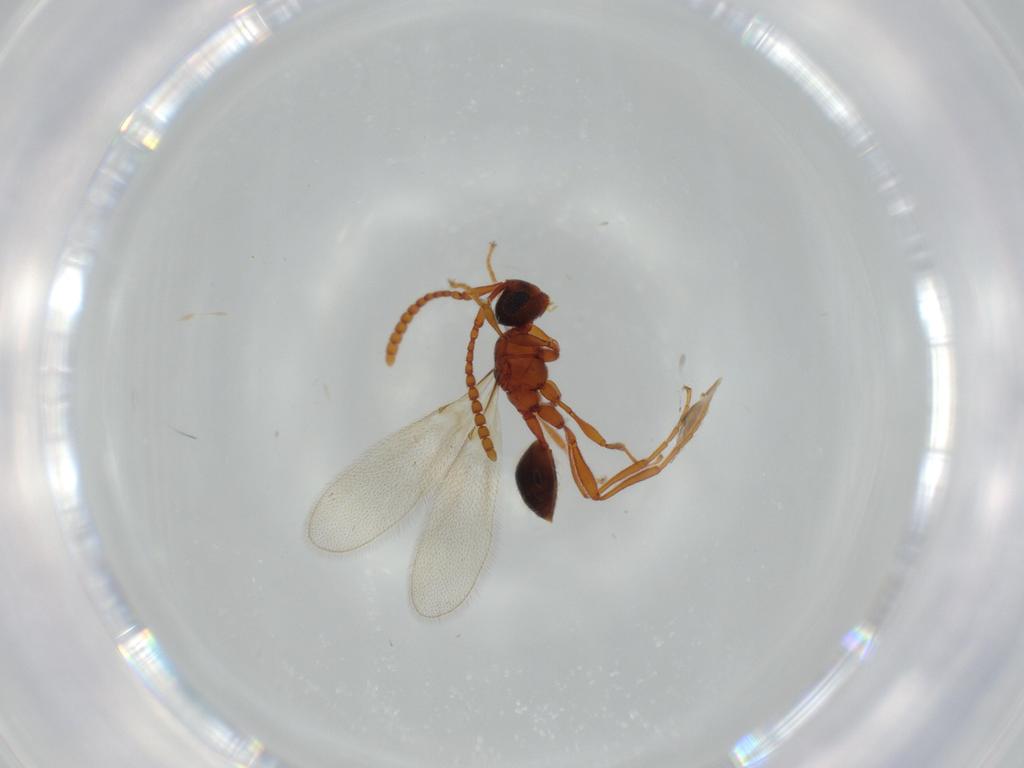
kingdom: Animalia
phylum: Arthropoda
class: Insecta
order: Hymenoptera
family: Diapriidae
